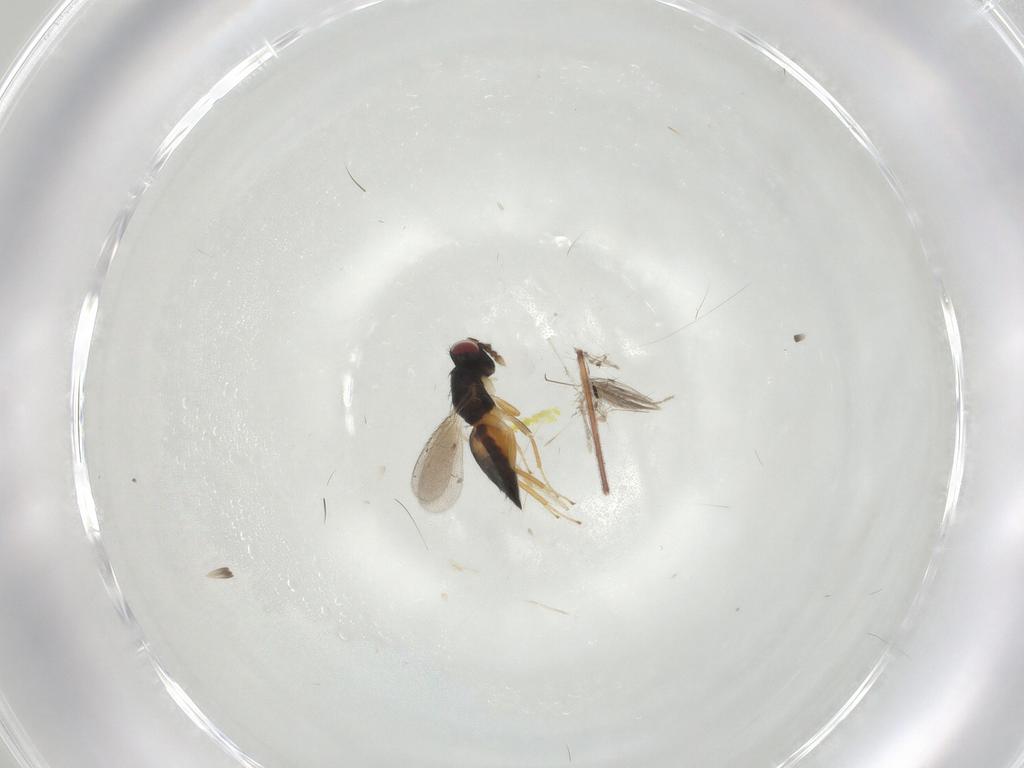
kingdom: Animalia
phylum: Arthropoda
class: Insecta
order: Hymenoptera
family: Eulophidae
